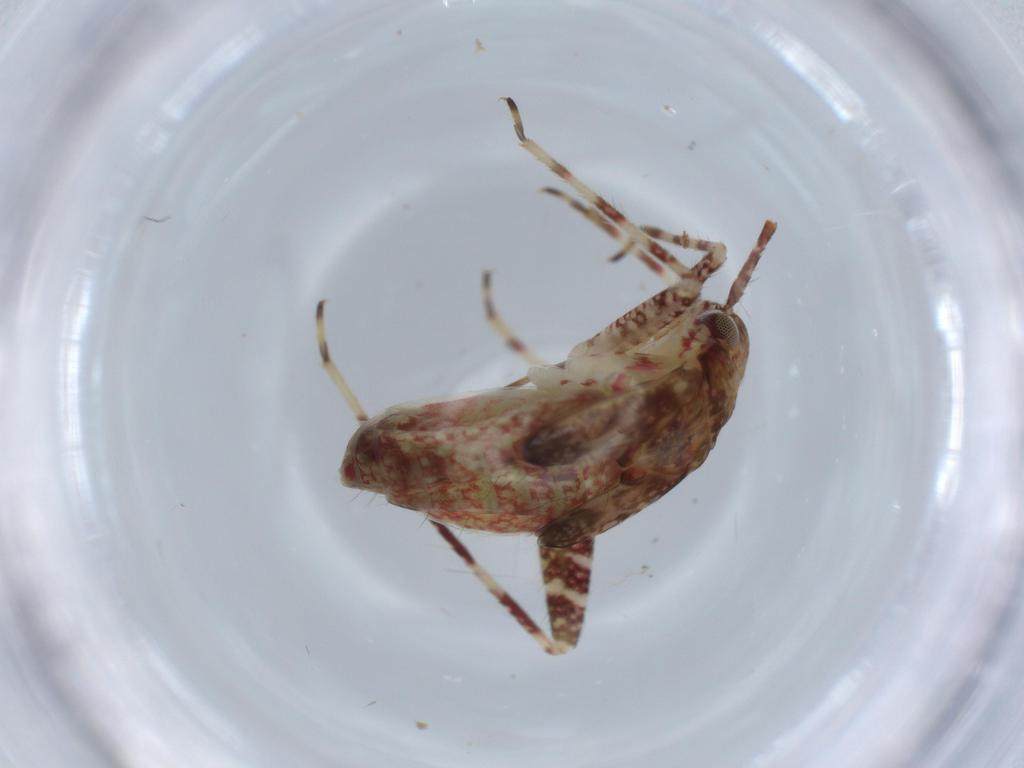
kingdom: Animalia
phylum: Arthropoda
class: Insecta
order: Hemiptera
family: Miridae
